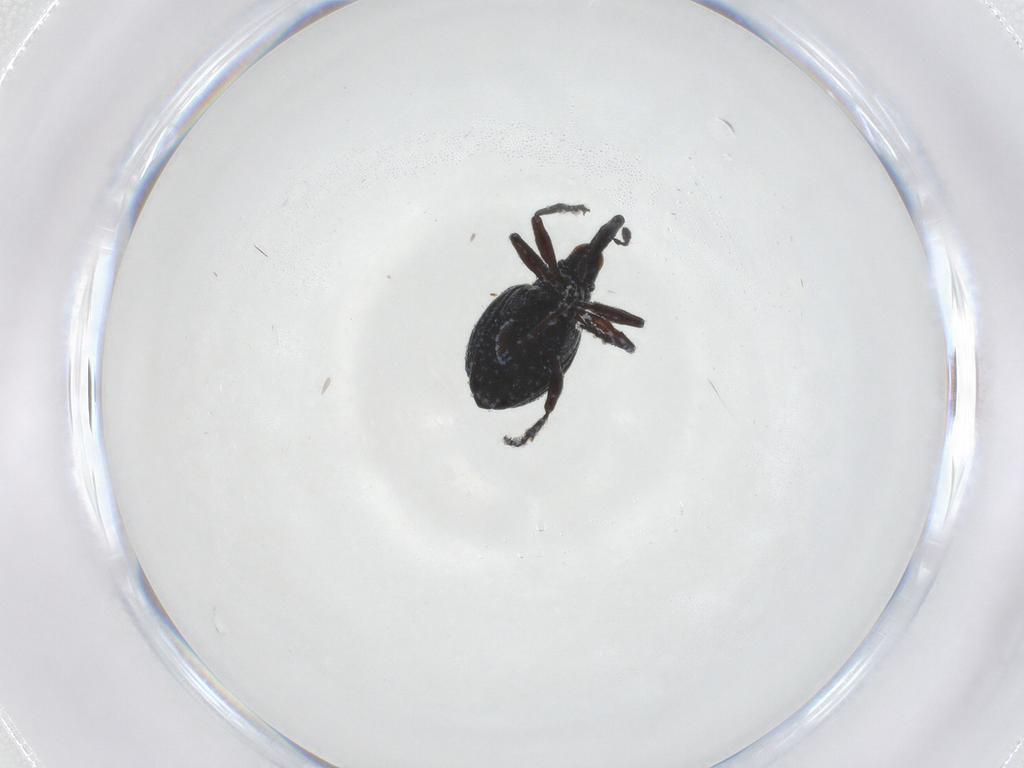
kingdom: Animalia
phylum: Arthropoda
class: Insecta
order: Coleoptera
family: Brentidae
